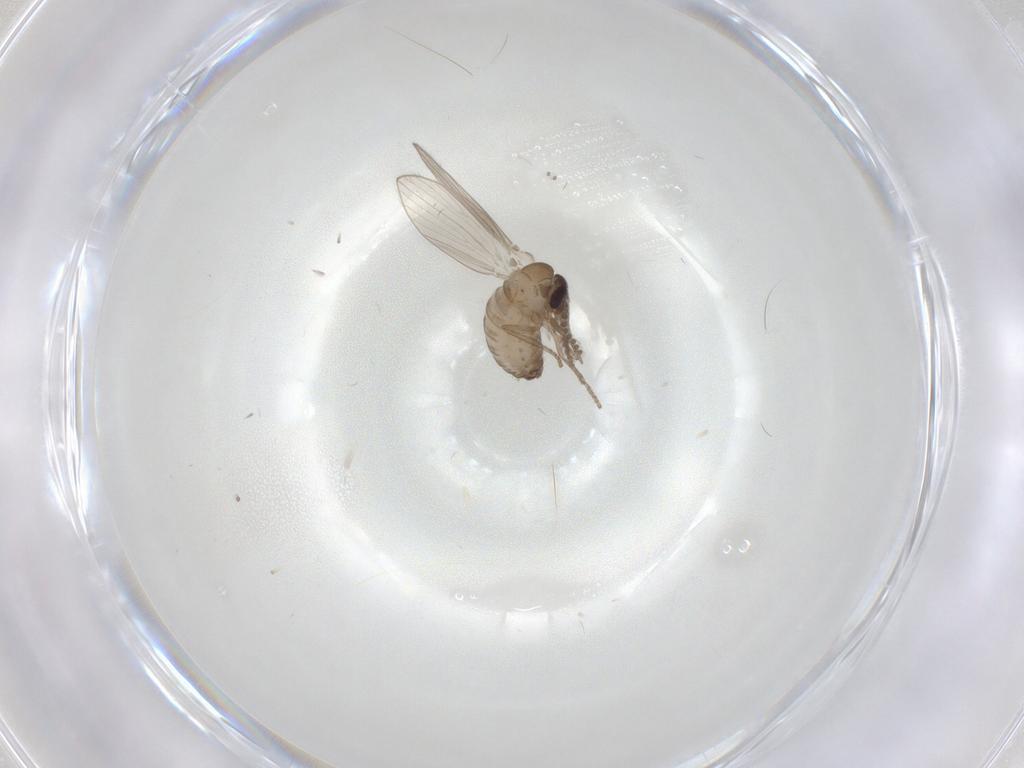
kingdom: Animalia
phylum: Arthropoda
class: Insecta
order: Diptera
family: Psychodidae
